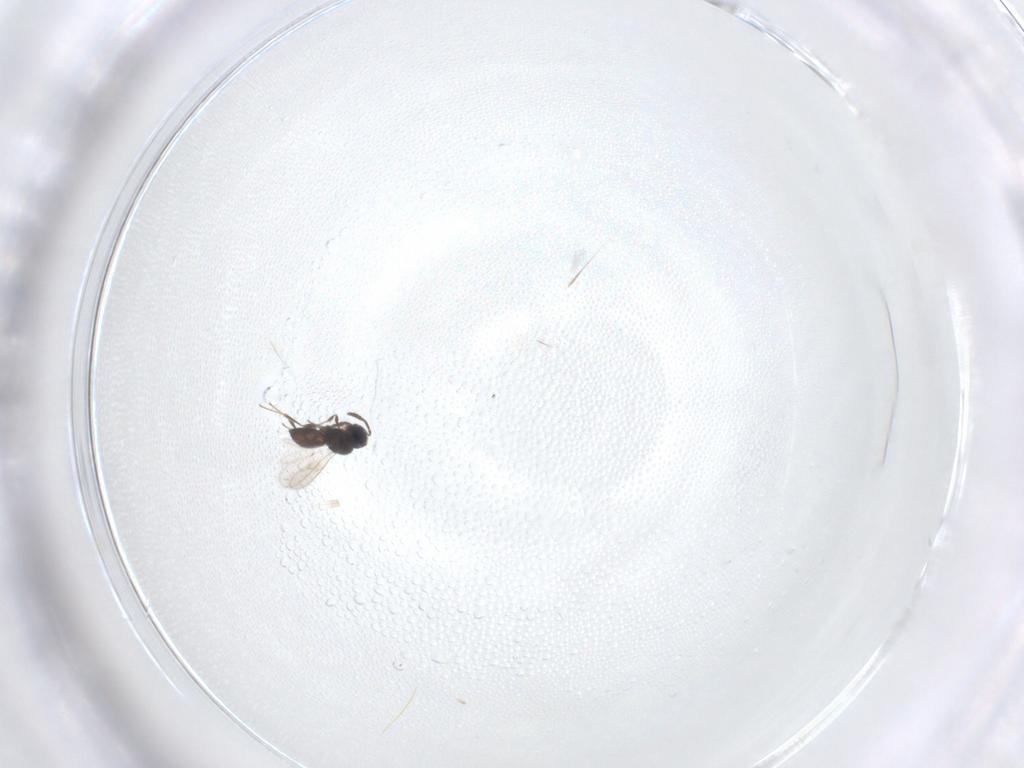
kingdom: Animalia
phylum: Arthropoda
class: Insecta
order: Hymenoptera
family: Scelionidae
